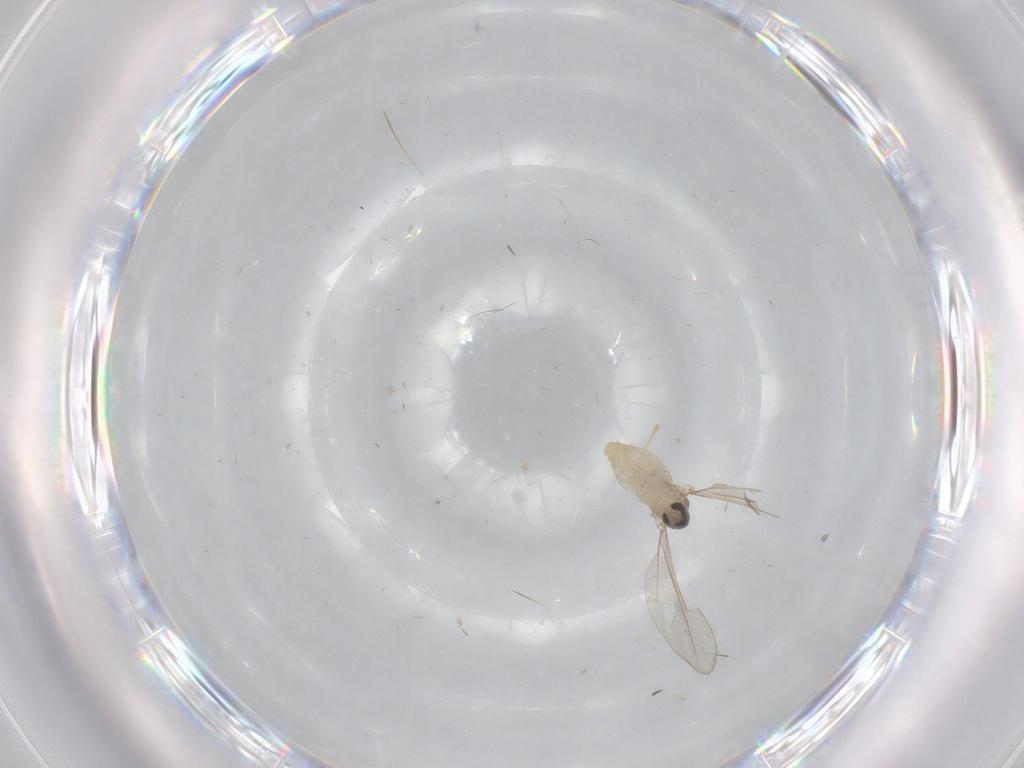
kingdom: Animalia
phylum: Arthropoda
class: Insecta
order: Diptera
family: Cecidomyiidae
